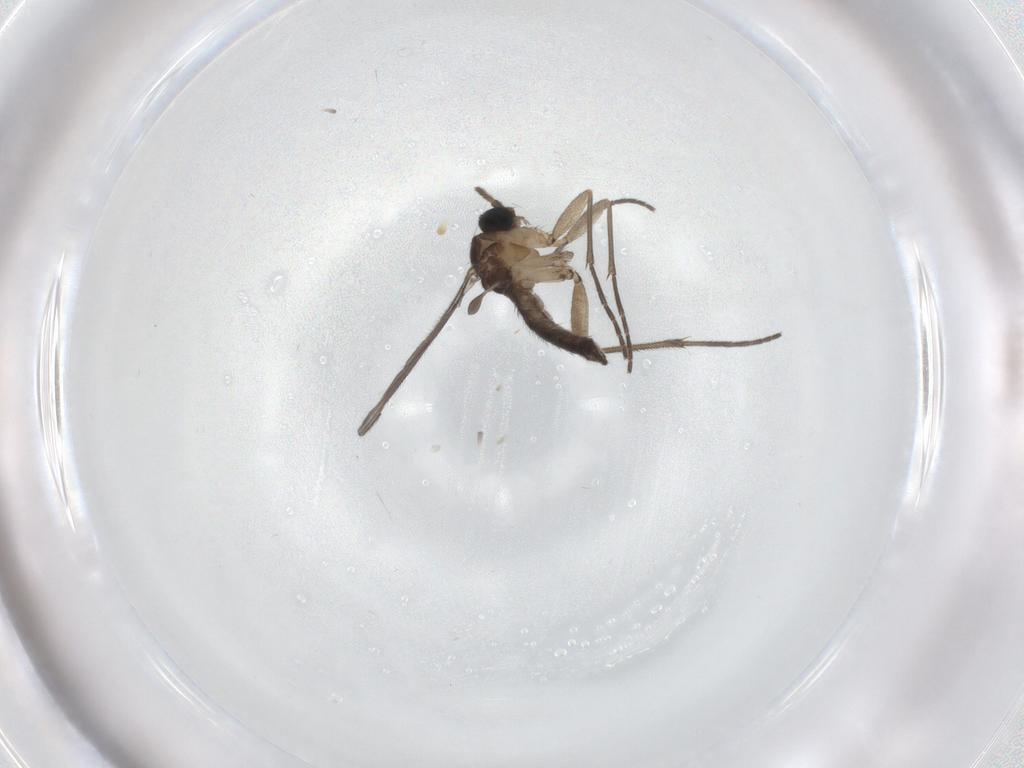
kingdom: Animalia
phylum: Arthropoda
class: Insecta
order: Diptera
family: Sciaridae
